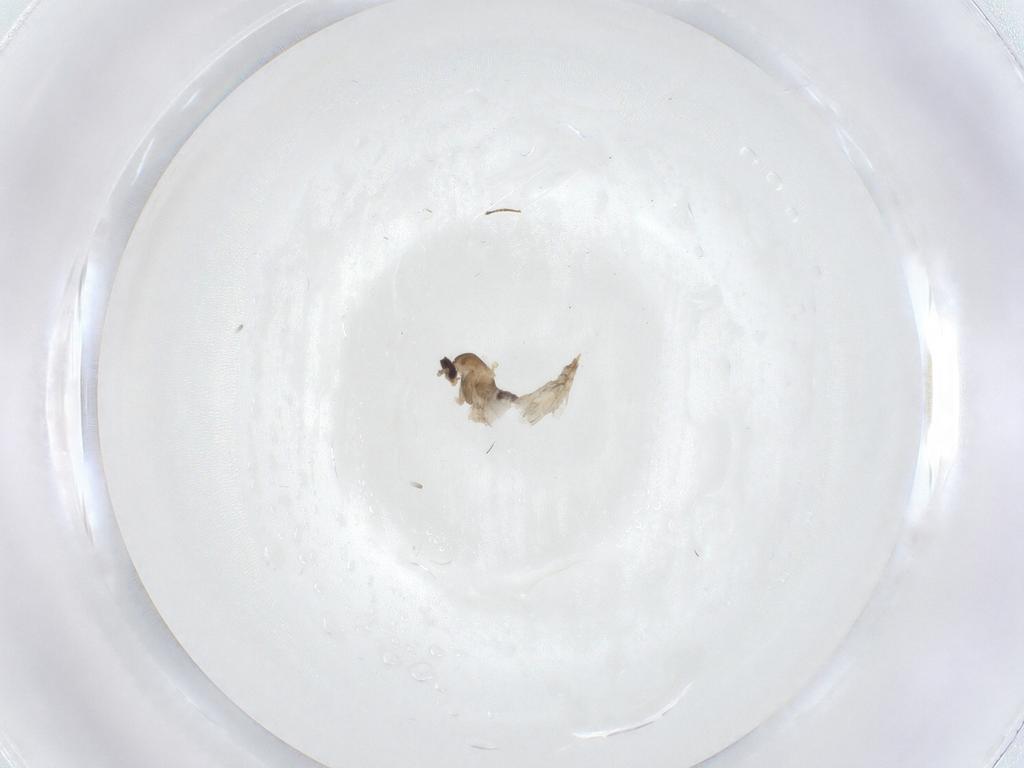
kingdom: Animalia
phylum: Arthropoda
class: Insecta
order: Diptera
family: Cecidomyiidae
